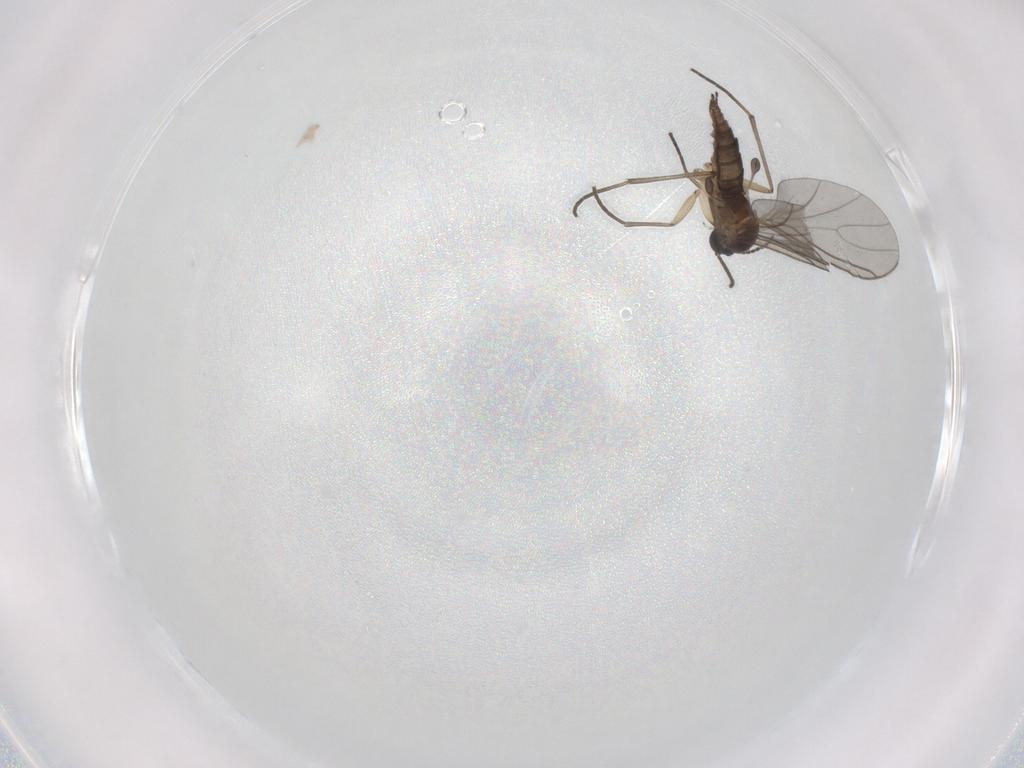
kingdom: Animalia
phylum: Arthropoda
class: Insecta
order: Diptera
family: Sciaridae
